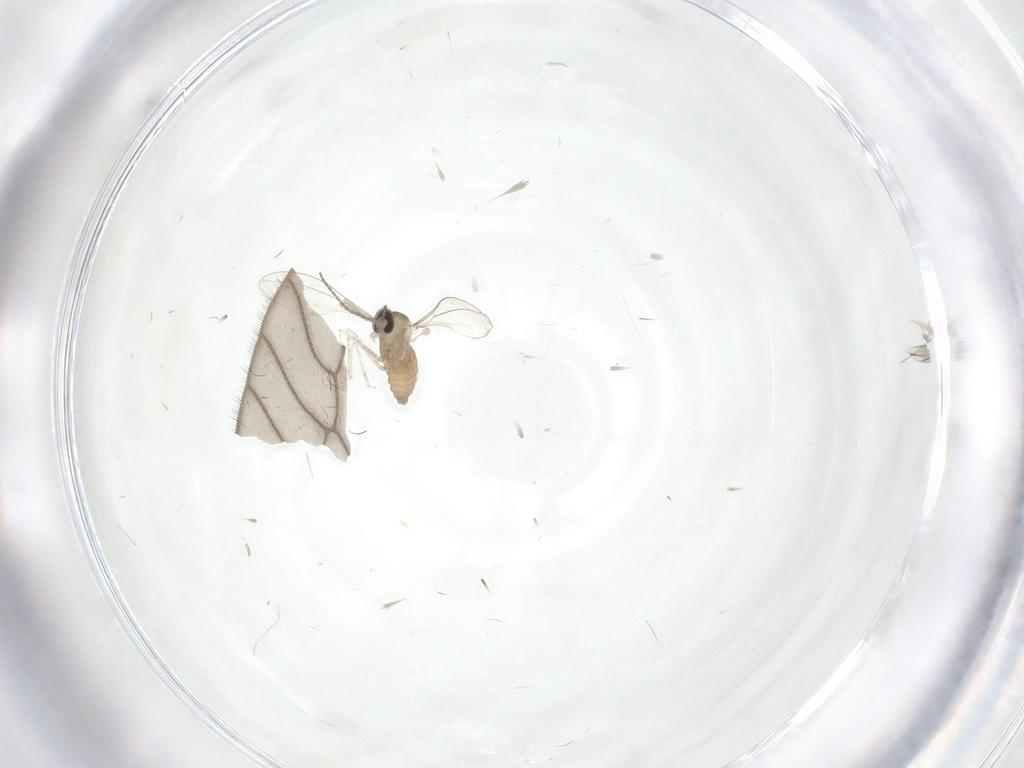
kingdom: Animalia
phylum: Arthropoda
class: Insecta
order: Diptera
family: Cecidomyiidae
